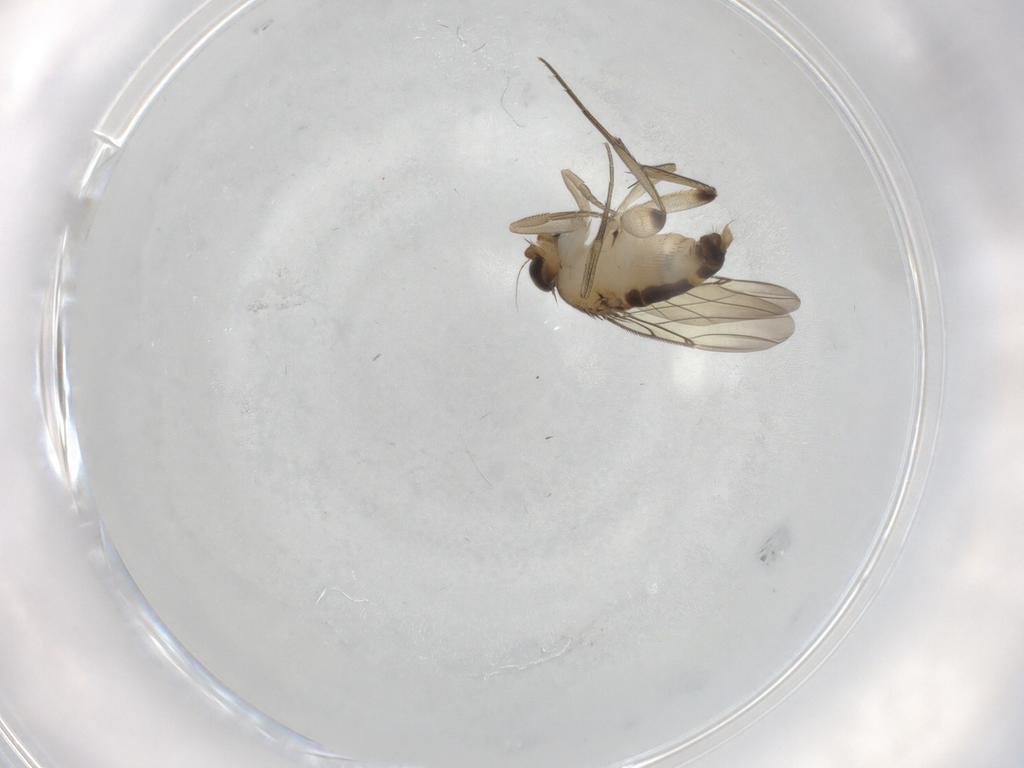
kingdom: Animalia
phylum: Arthropoda
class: Insecta
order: Diptera
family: Phoridae
